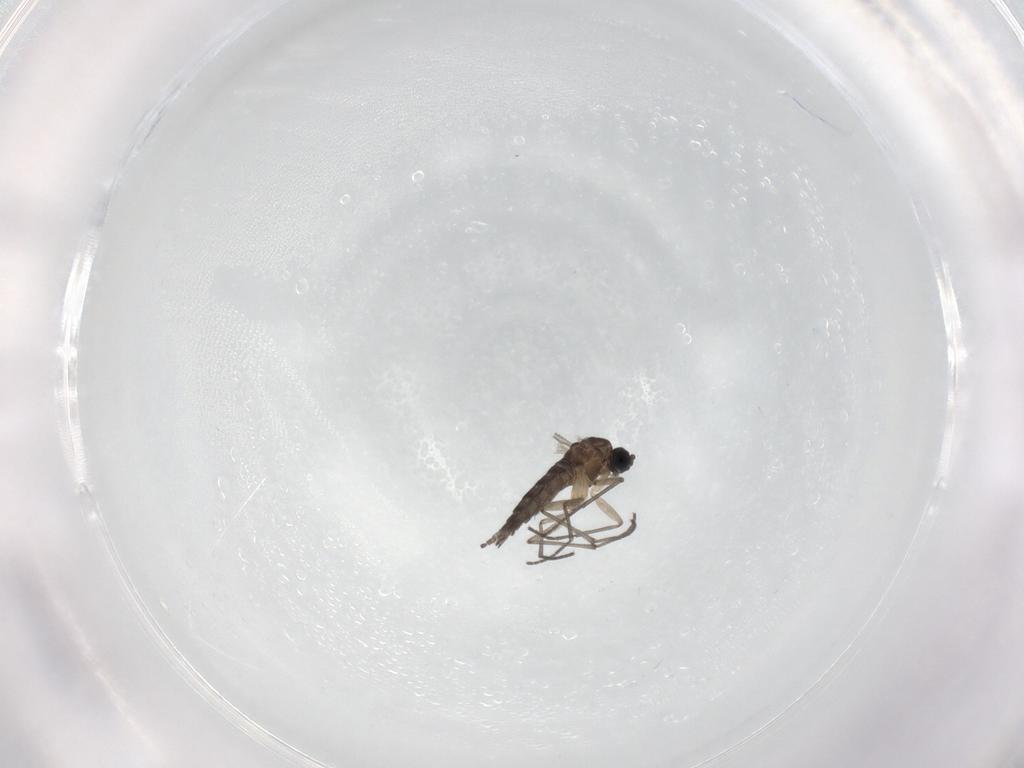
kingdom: Animalia
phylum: Arthropoda
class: Insecta
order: Diptera
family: Sciaridae
